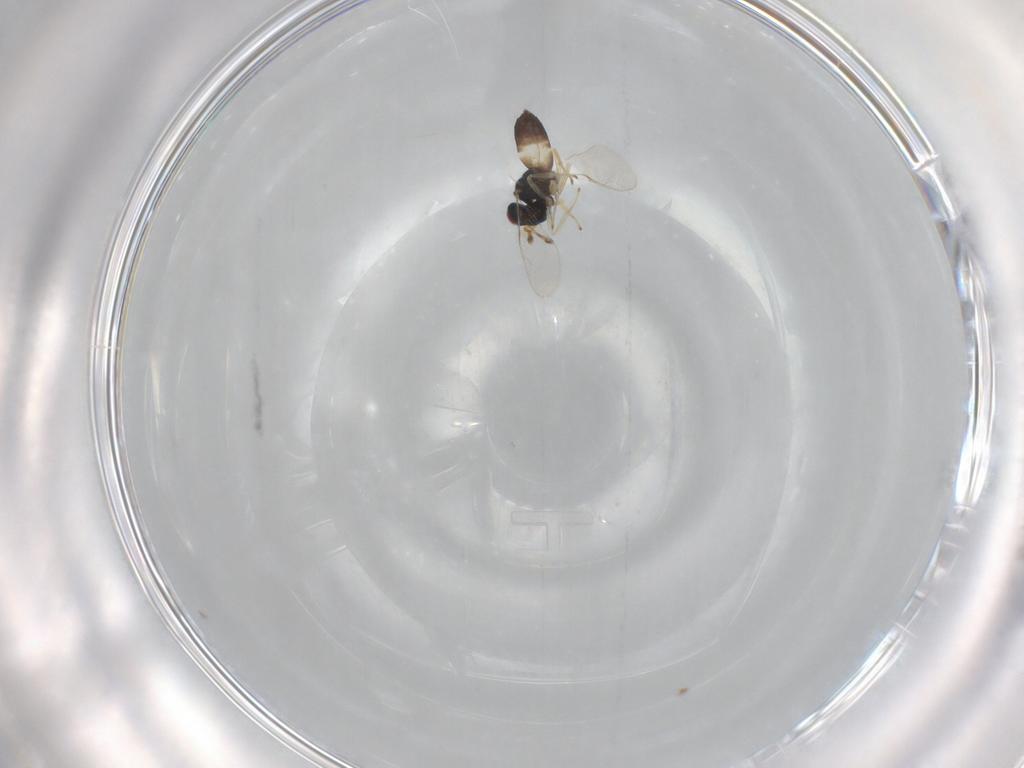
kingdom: Animalia
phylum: Arthropoda
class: Insecta
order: Hymenoptera
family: Pteromalidae
